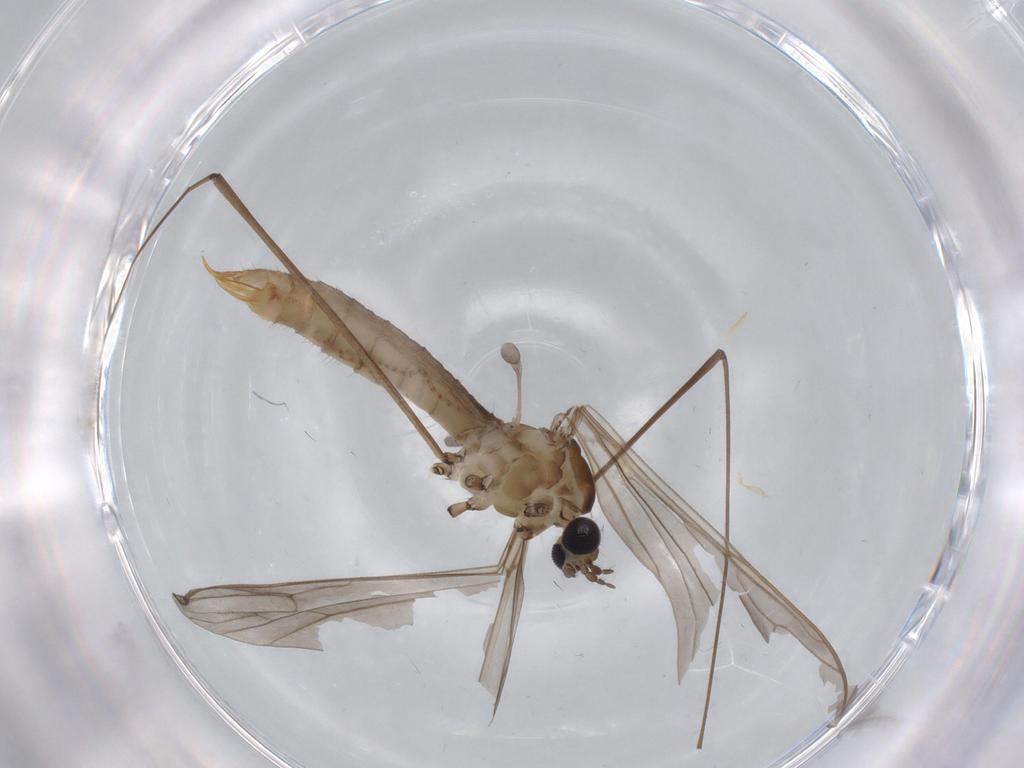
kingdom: Animalia
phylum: Arthropoda
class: Insecta
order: Diptera
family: Limoniidae
